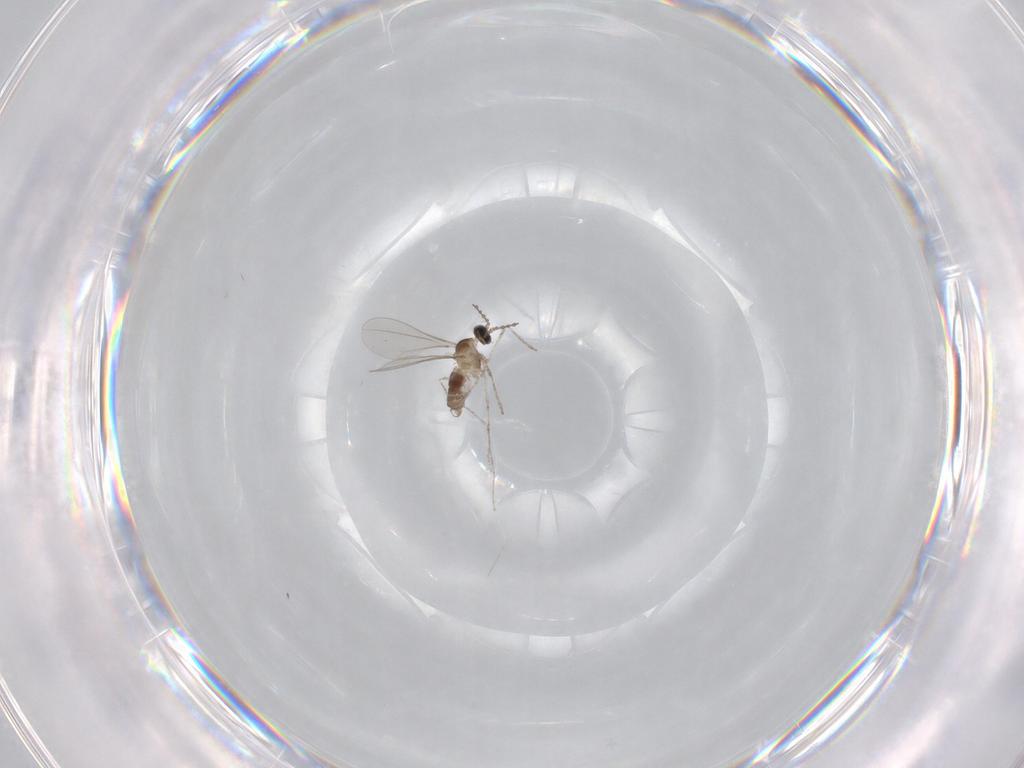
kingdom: Animalia
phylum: Arthropoda
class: Insecta
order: Diptera
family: Cecidomyiidae
